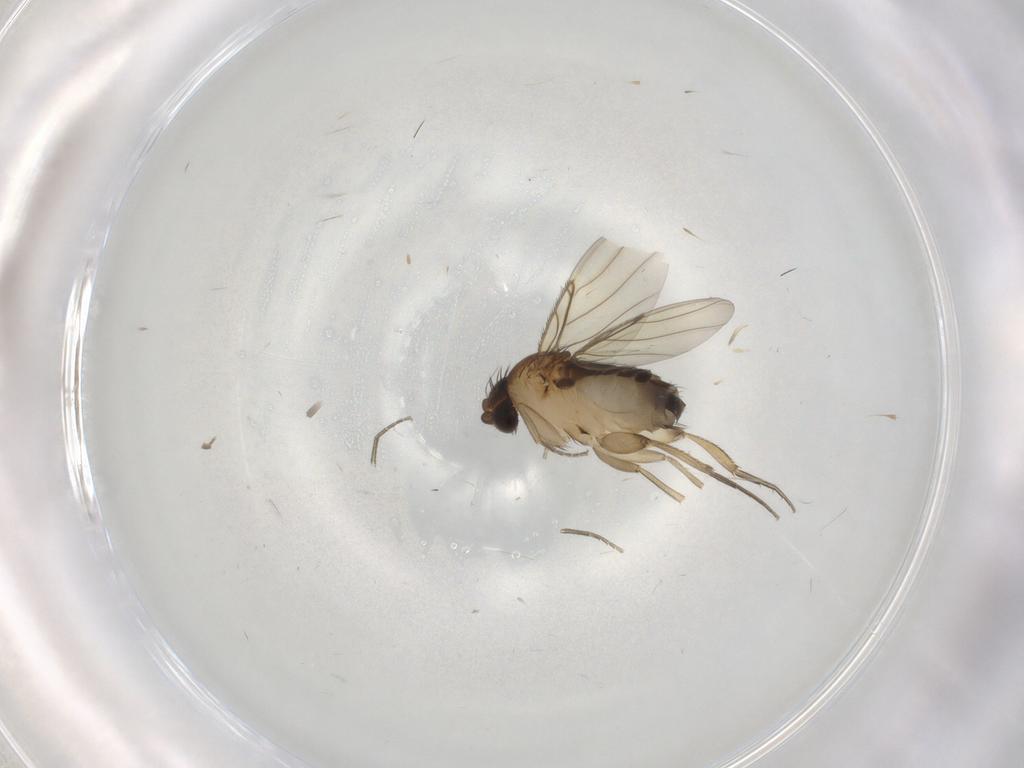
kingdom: Animalia
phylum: Arthropoda
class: Insecta
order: Diptera
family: Phoridae
